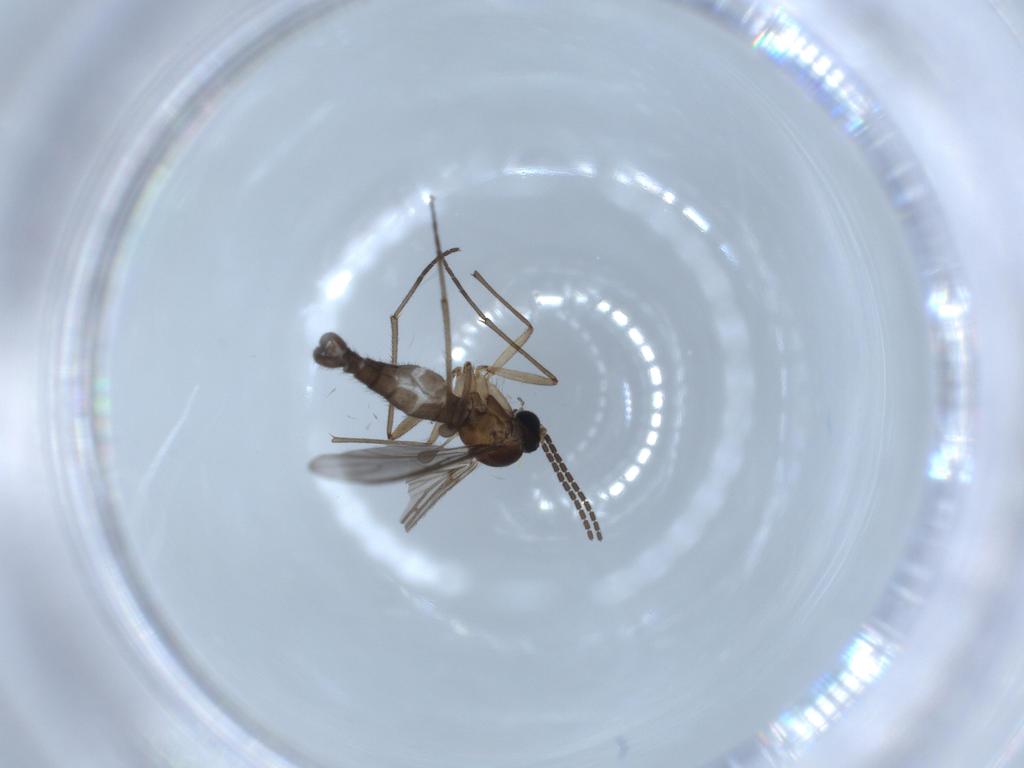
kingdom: Animalia
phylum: Arthropoda
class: Insecta
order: Diptera
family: Sciaridae
